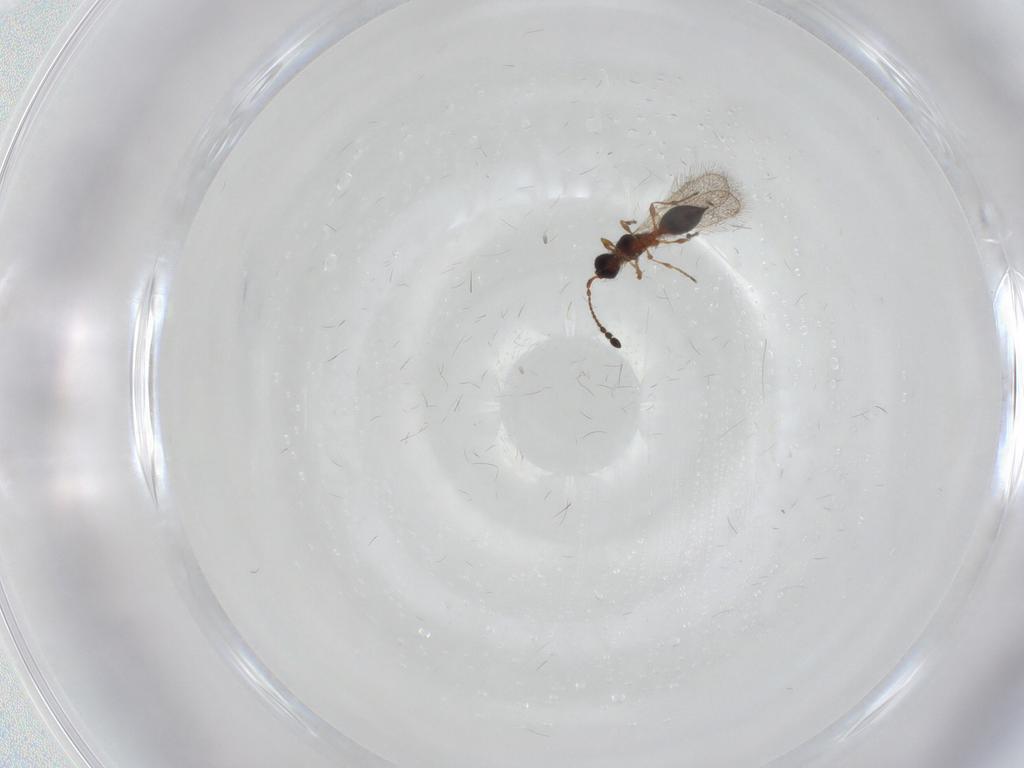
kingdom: Animalia
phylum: Arthropoda
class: Insecta
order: Hymenoptera
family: Diapriidae
